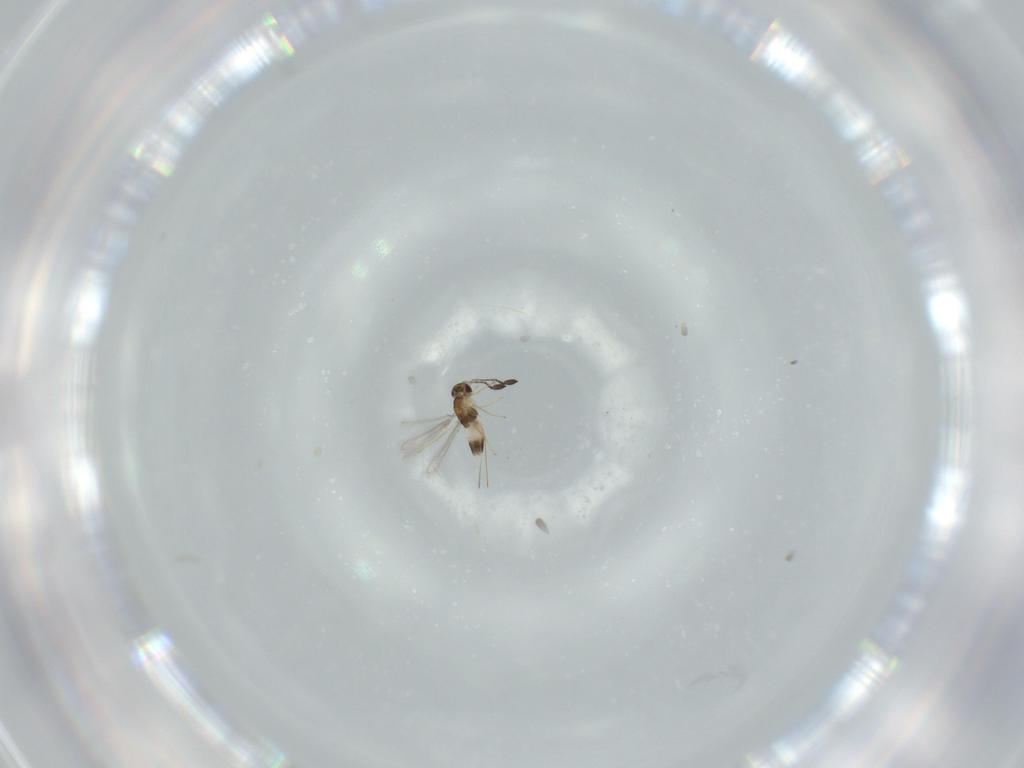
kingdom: Animalia
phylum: Arthropoda
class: Insecta
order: Hymenoptera
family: Mymaridae
